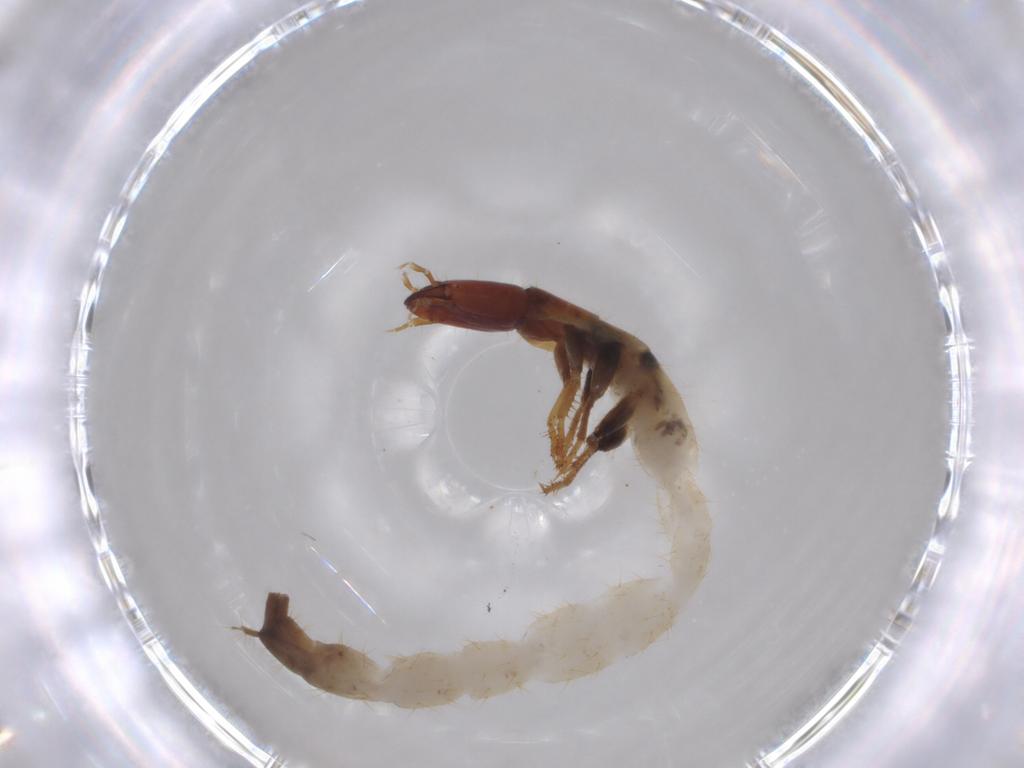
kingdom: Animalia
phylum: Arthropoda
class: Insecta
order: Coleoptera
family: Staphylinidae
